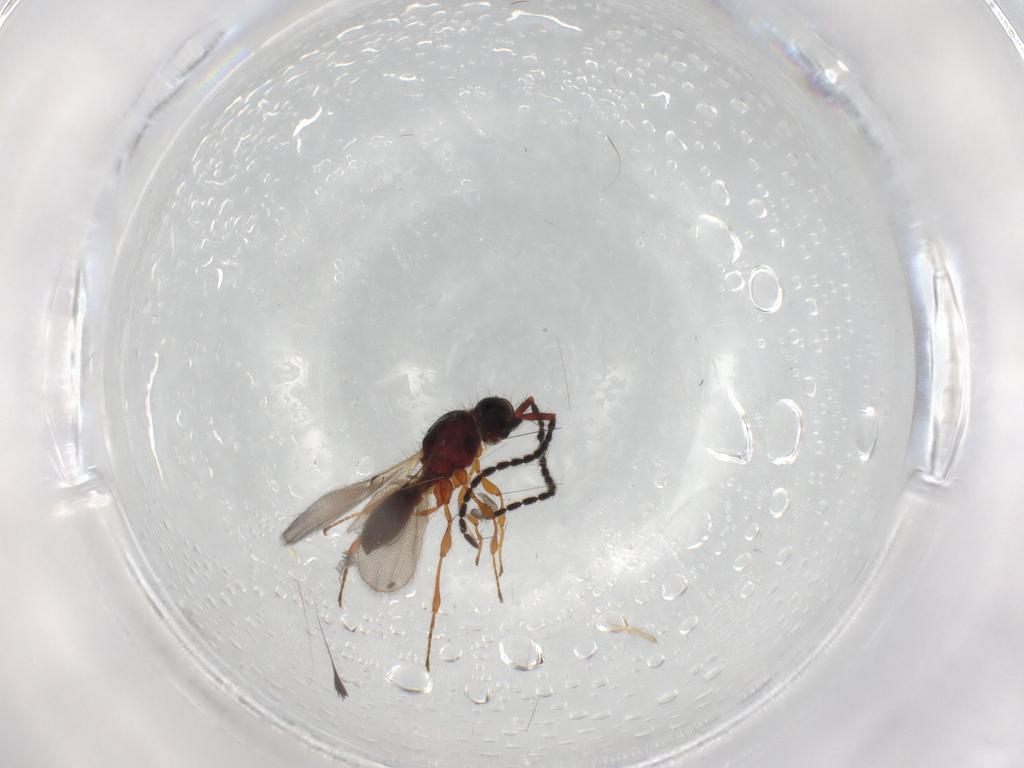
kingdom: Animalia
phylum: Arthropoda
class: Insecta
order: Hymenoptera
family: Diapriidae
